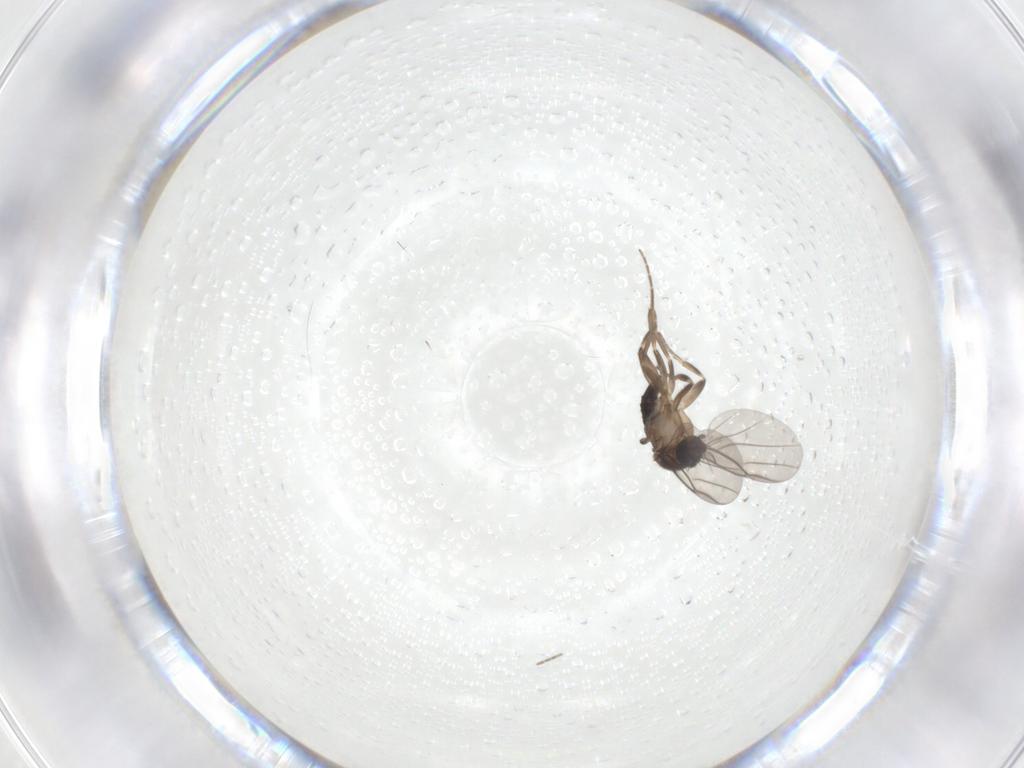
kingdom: Animalia
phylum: Arthropoda
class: Insecta
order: Diptera
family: Phoridae
